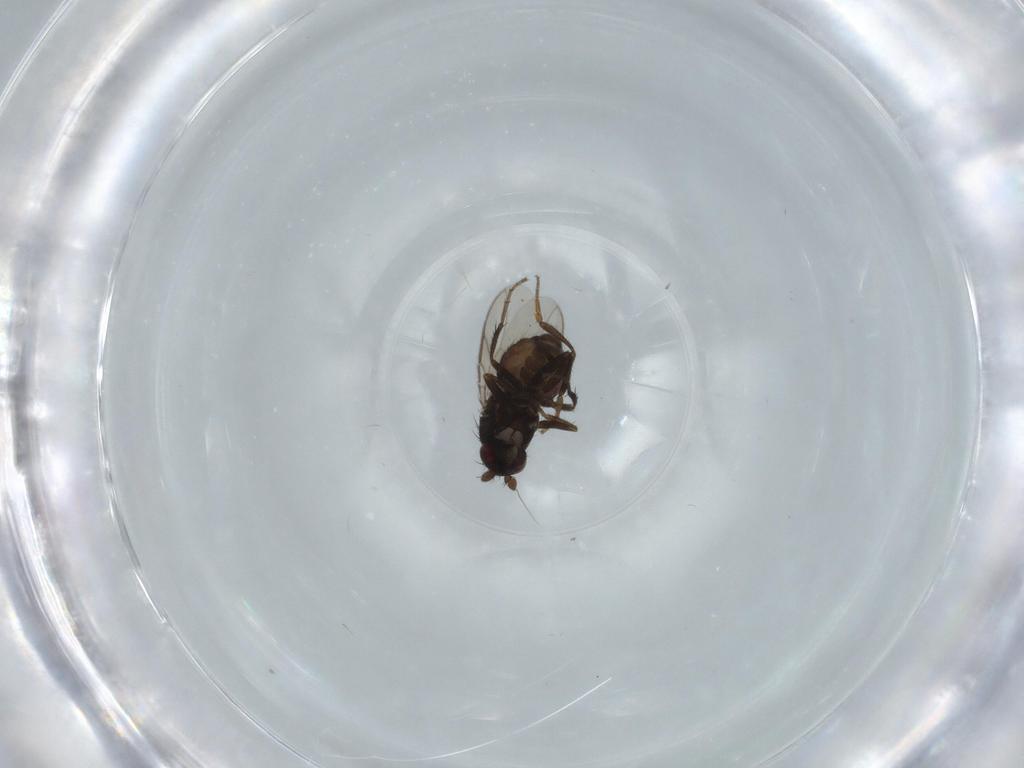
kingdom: Animalia
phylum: Arthropoda
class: Insecta
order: Diptera
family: Sphaeroceridae
